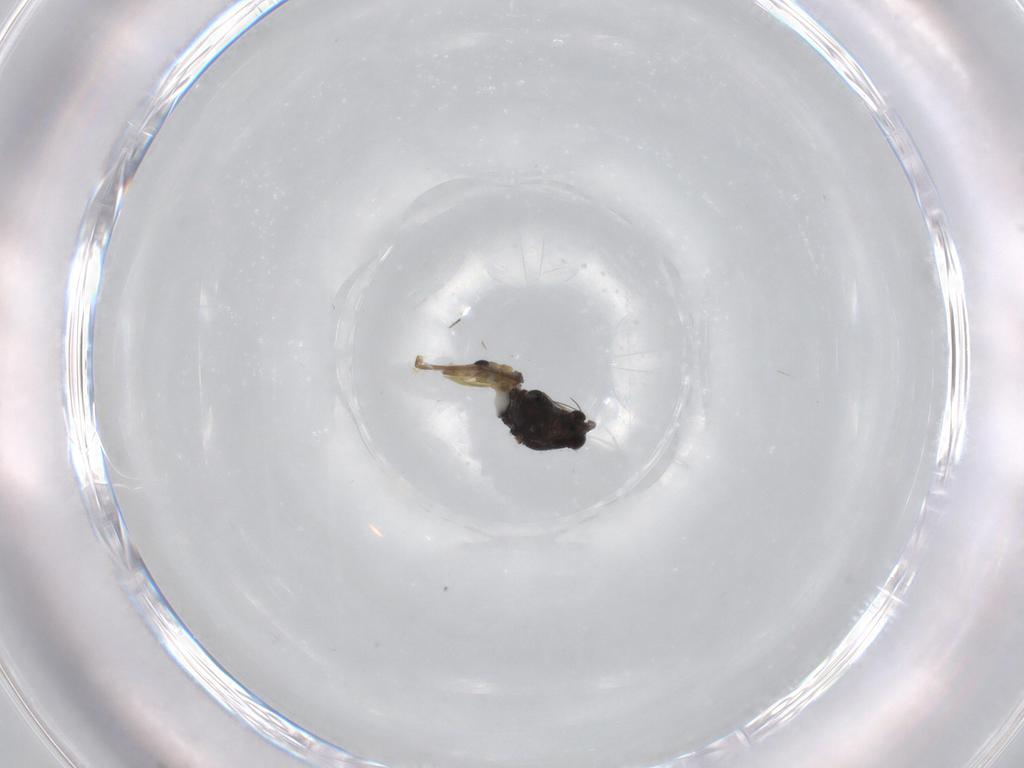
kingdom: Animalia
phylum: Arthropoda
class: Insecta
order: Diptera
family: Chironomidae
